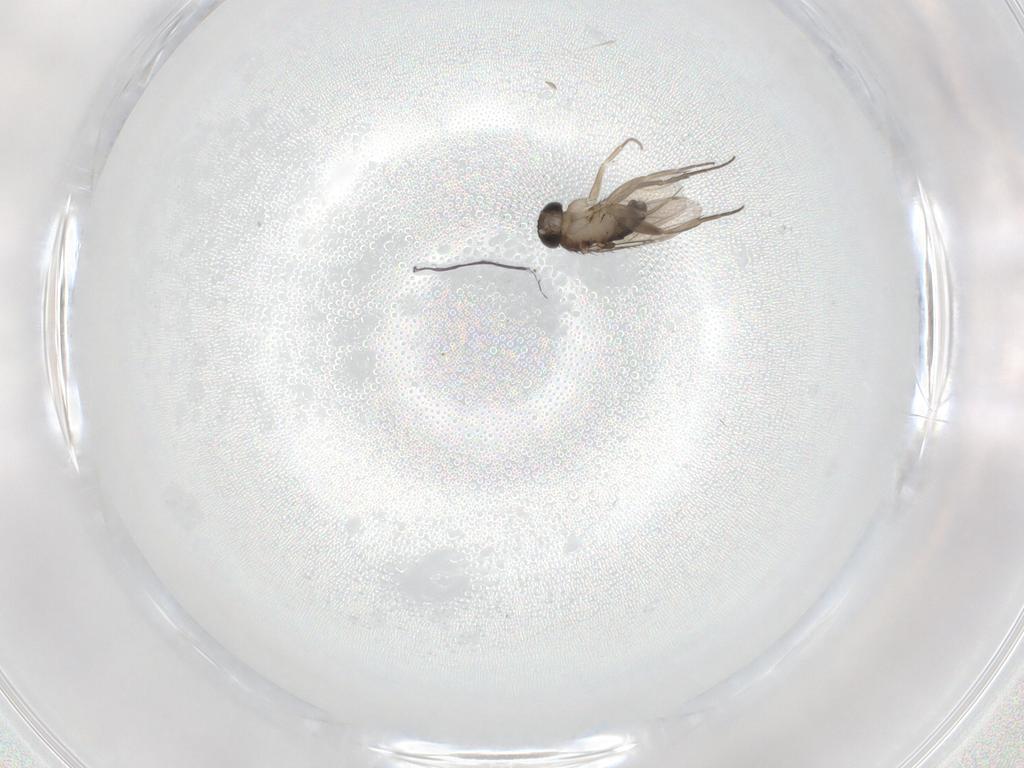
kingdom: Animalia
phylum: Arthropoda
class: Insecta
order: Diptera
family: Phoridae
